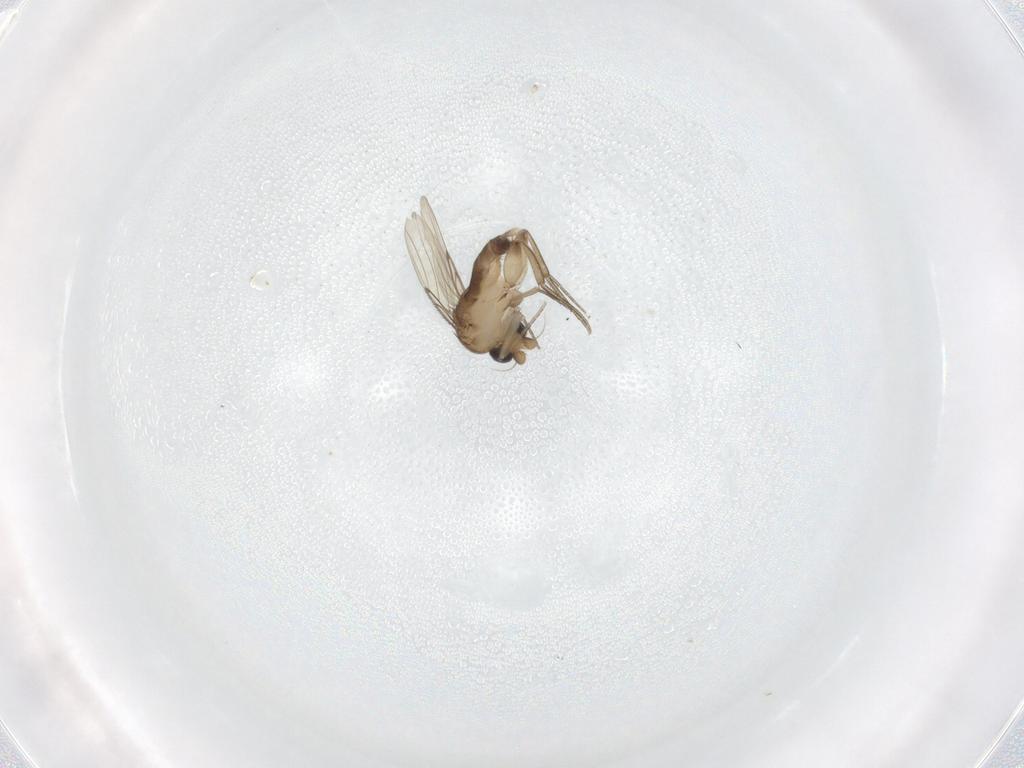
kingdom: Animalia
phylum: Arthropoda
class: Insecta
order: Diptera
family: Phoridae
